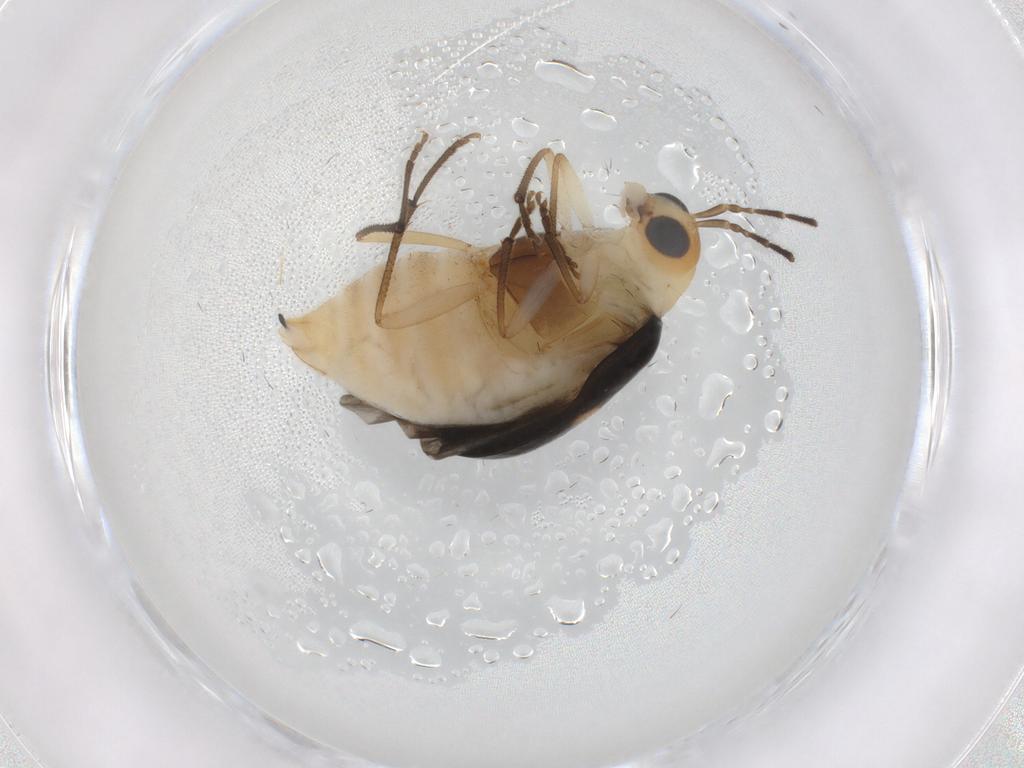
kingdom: Animalia
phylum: Arthropoda
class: Insecta
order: Coleoptera
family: Chrysomelidae
